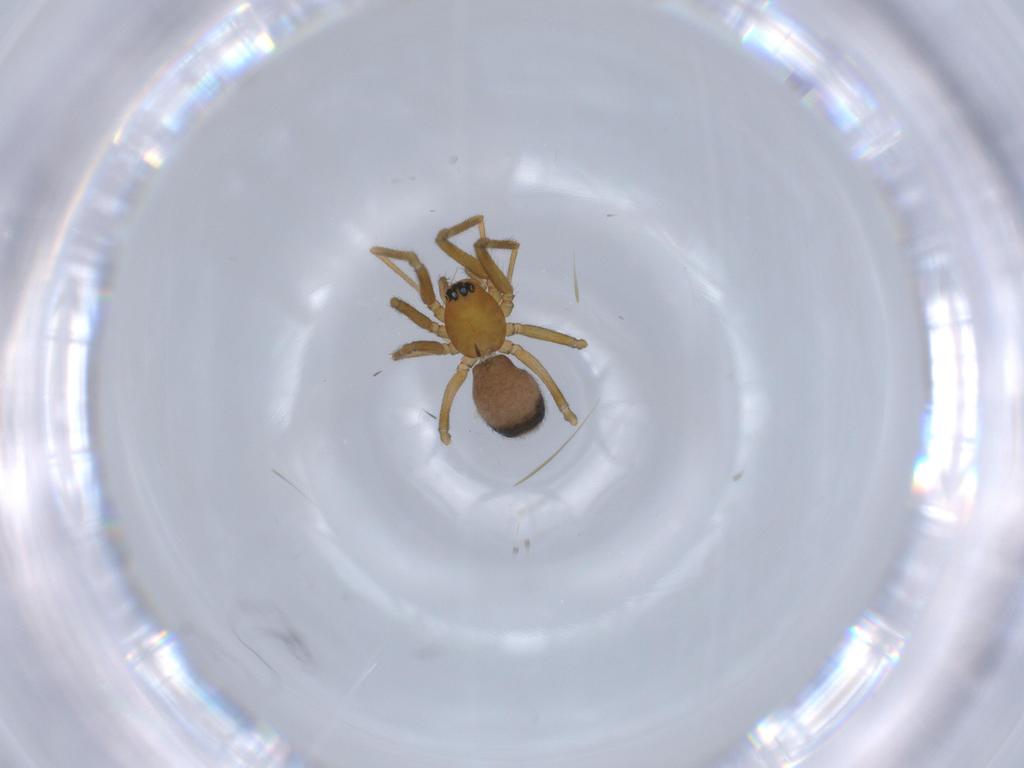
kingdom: Animalia
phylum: Arthropoda
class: Arachnida
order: Araneae
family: Linyphiidae
